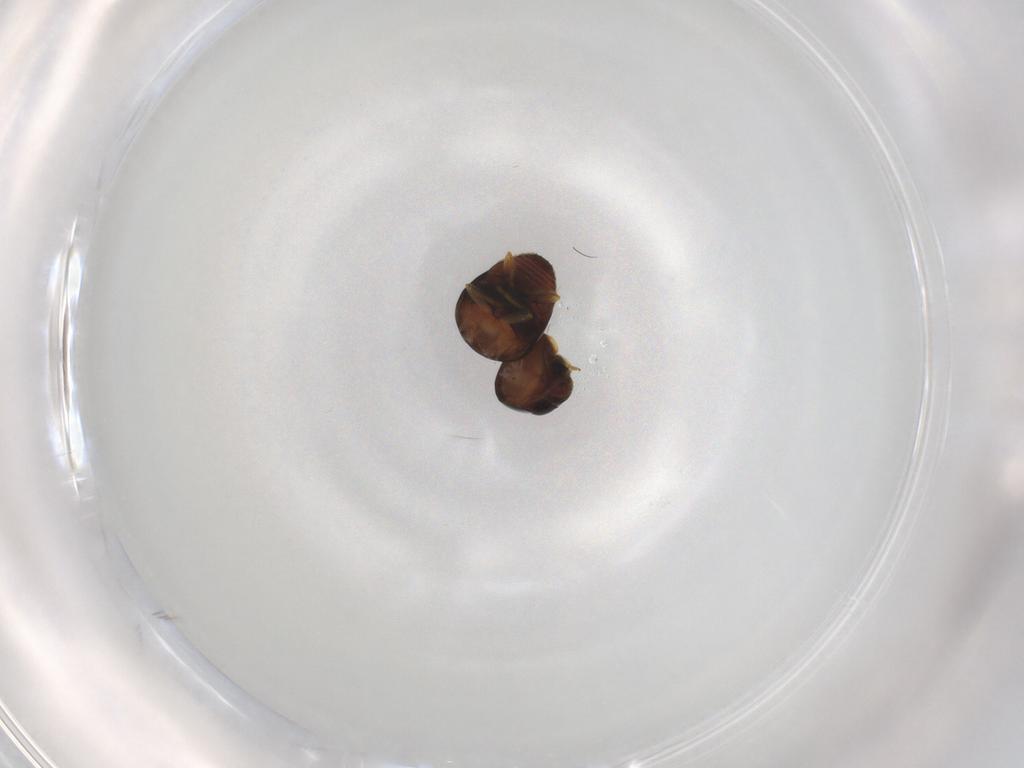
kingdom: Animalia
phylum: Arthropoda
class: Insecta
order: Coleoptera
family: Cybocephalidae
